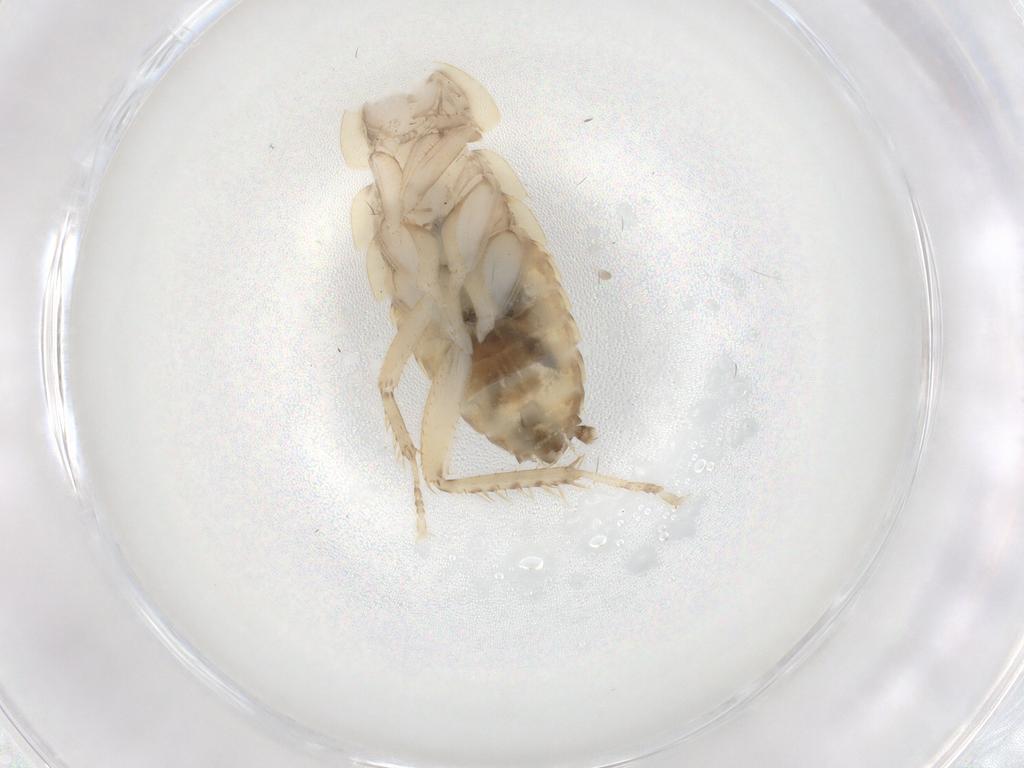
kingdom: Animalia
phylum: Arthropoda
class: Insecta
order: Blattodea
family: Ectobiidae
